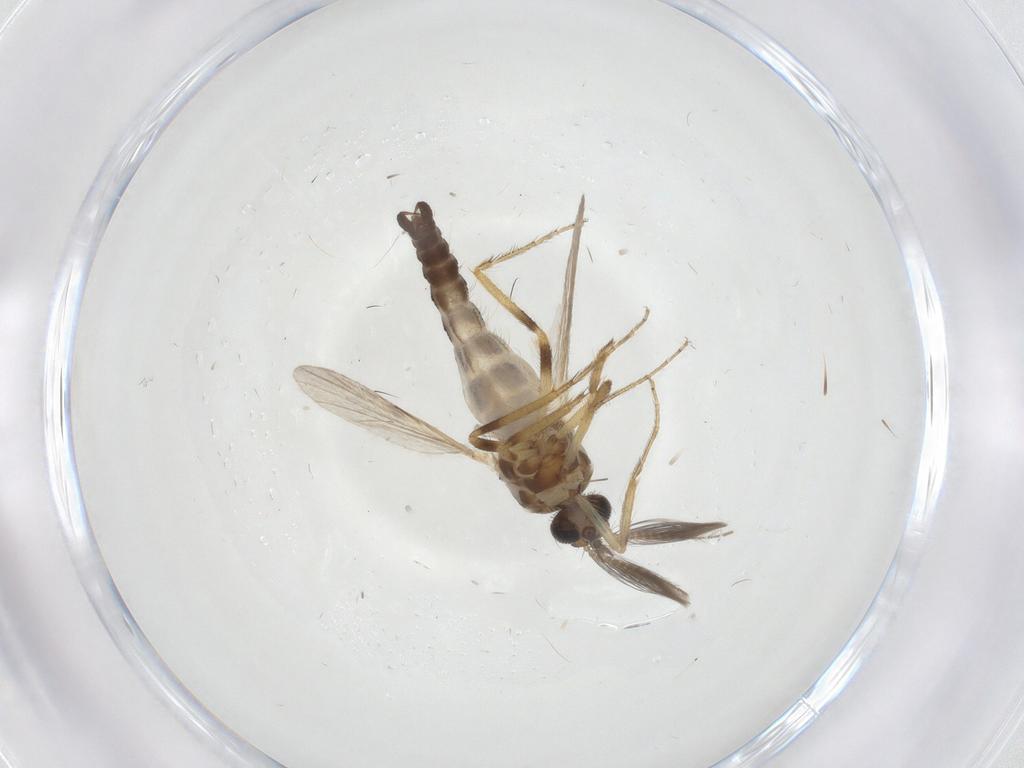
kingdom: Animalia
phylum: Arthropoda
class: Insecta
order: Diptera
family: Ceratopogonidae
